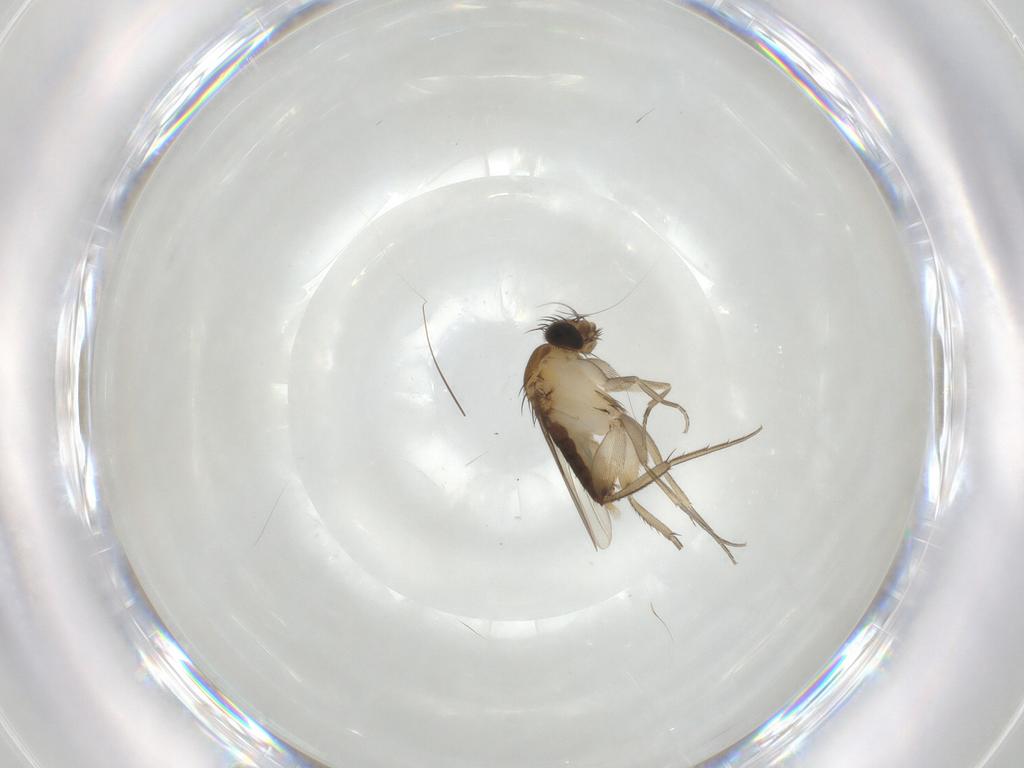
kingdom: Animalia
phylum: Arthropoda
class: Insecta
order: Diptera
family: Phoridae
